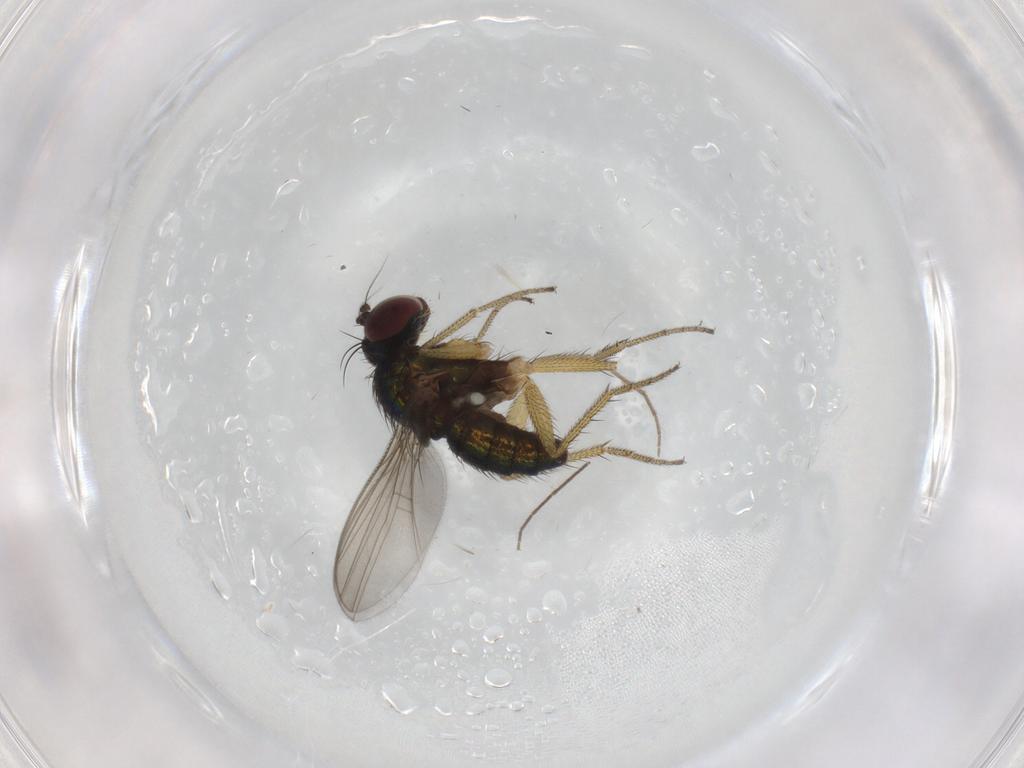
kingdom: Animalia
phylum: Arthropoda
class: Insecta
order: Diptera
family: Dolichopodidae
